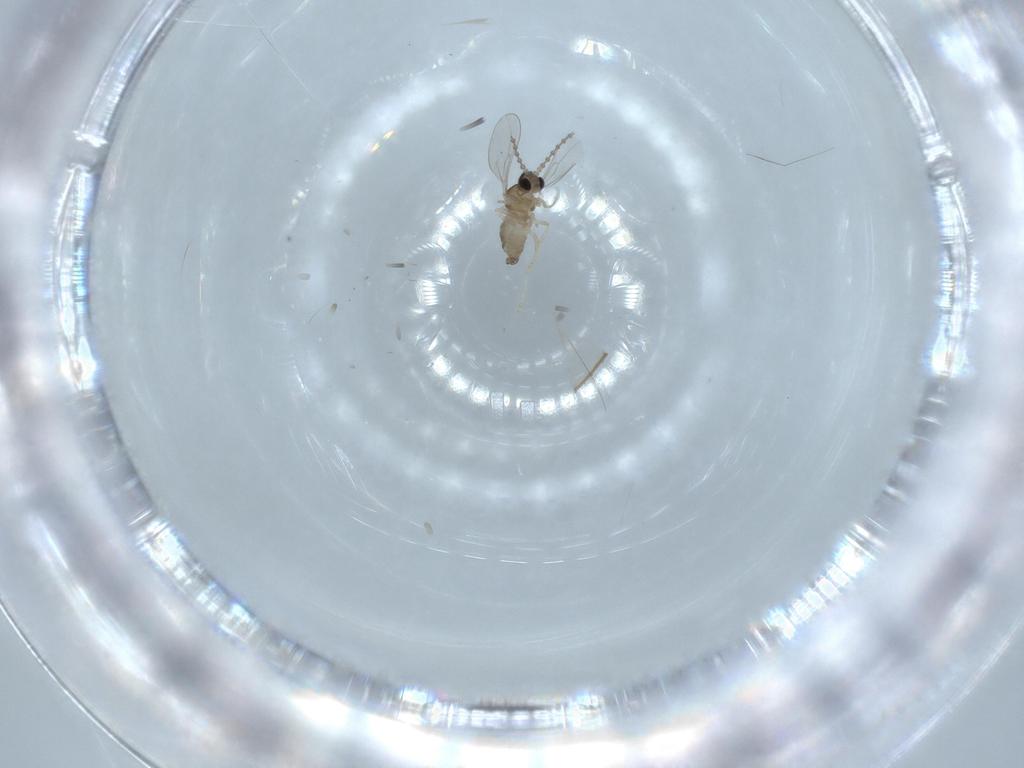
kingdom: Animalia
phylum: Arthropoda
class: Insecta
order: Diptera
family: Cecidomyiidae
